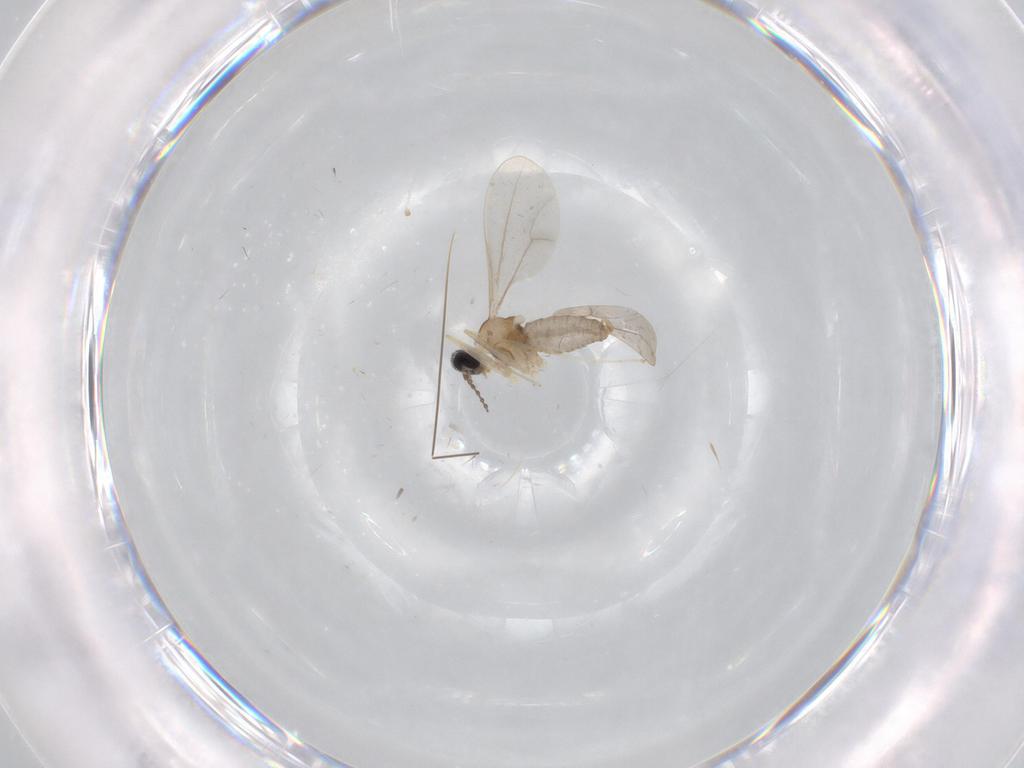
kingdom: Animalia
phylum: Arthropoda
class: Insecta
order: Diptera
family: Cecidomyiidae
